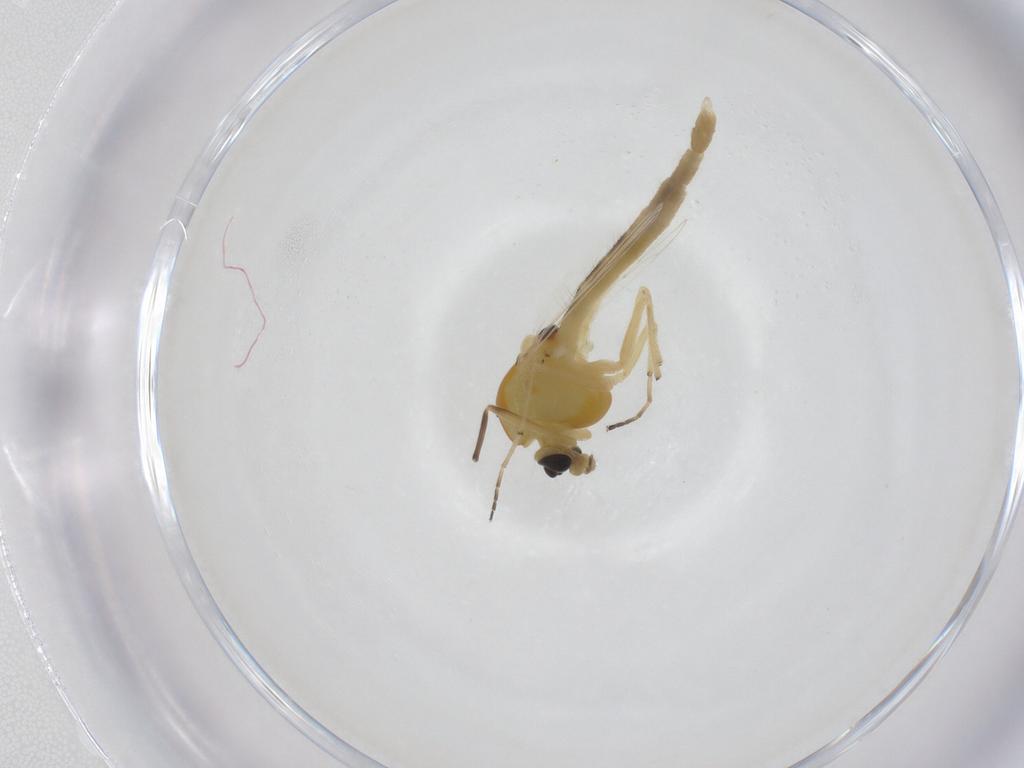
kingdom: Animalia
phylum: Arthropoda
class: Insecta
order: Diptera
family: Chironomidae
